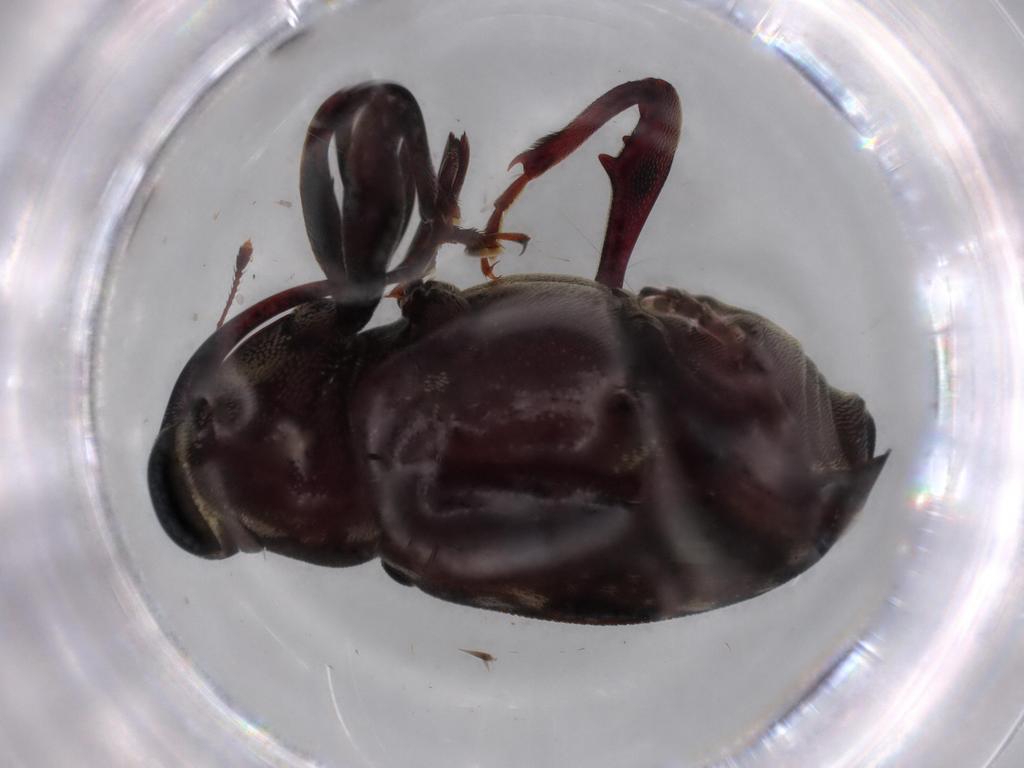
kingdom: Animalia
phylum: Arthropoda
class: Insecta
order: Coleoptera
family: Curculionidae
